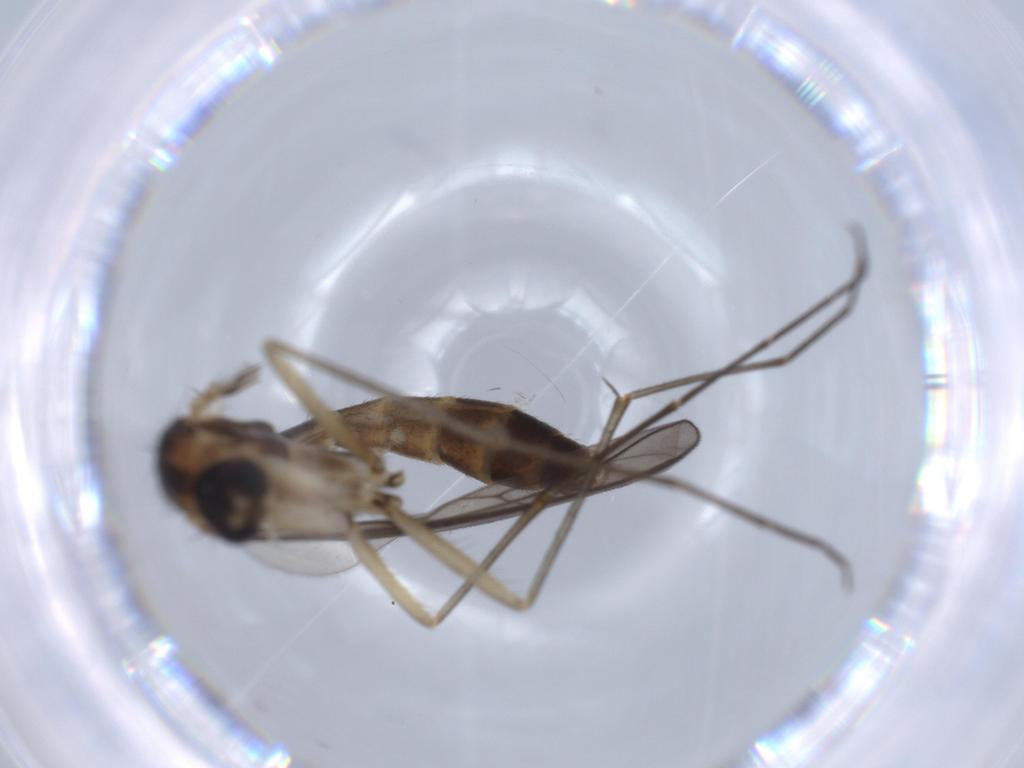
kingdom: Animalia
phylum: Arthropoda
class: Insecta
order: Diptera
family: Cecidomyiidae
